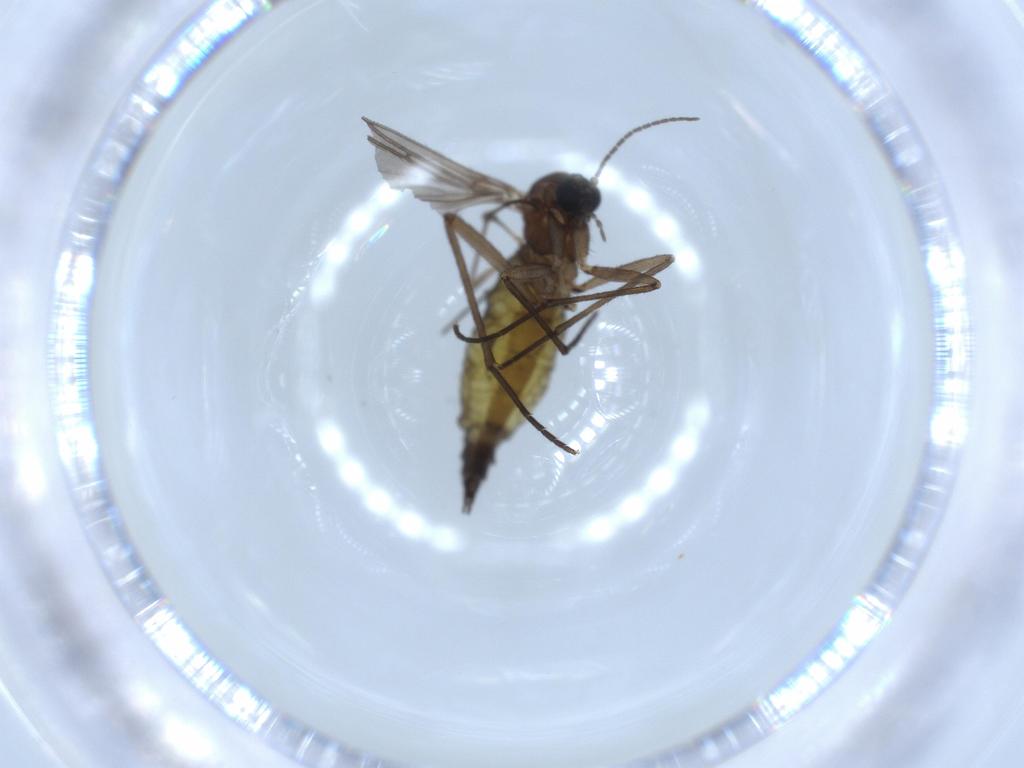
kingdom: Animalia
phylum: Arthropoda
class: Insecta
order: Diptera
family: Sciaridae
